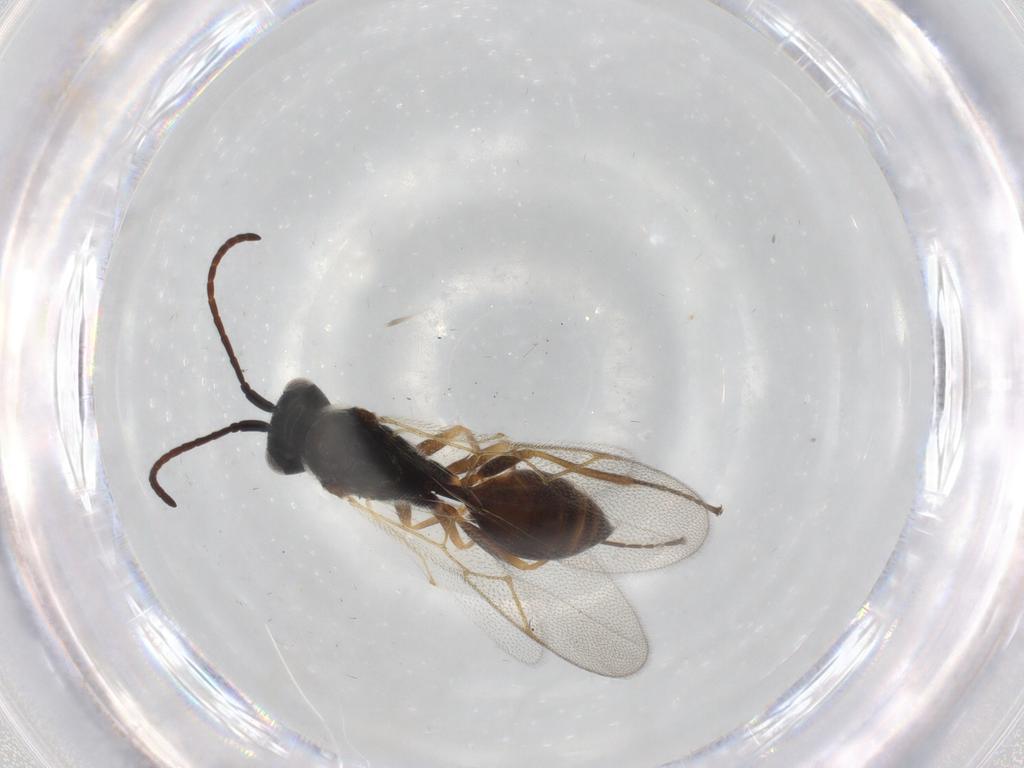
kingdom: Animalia
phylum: Arthropoda
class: Insecta
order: Hymenoptera
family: Figitidae
